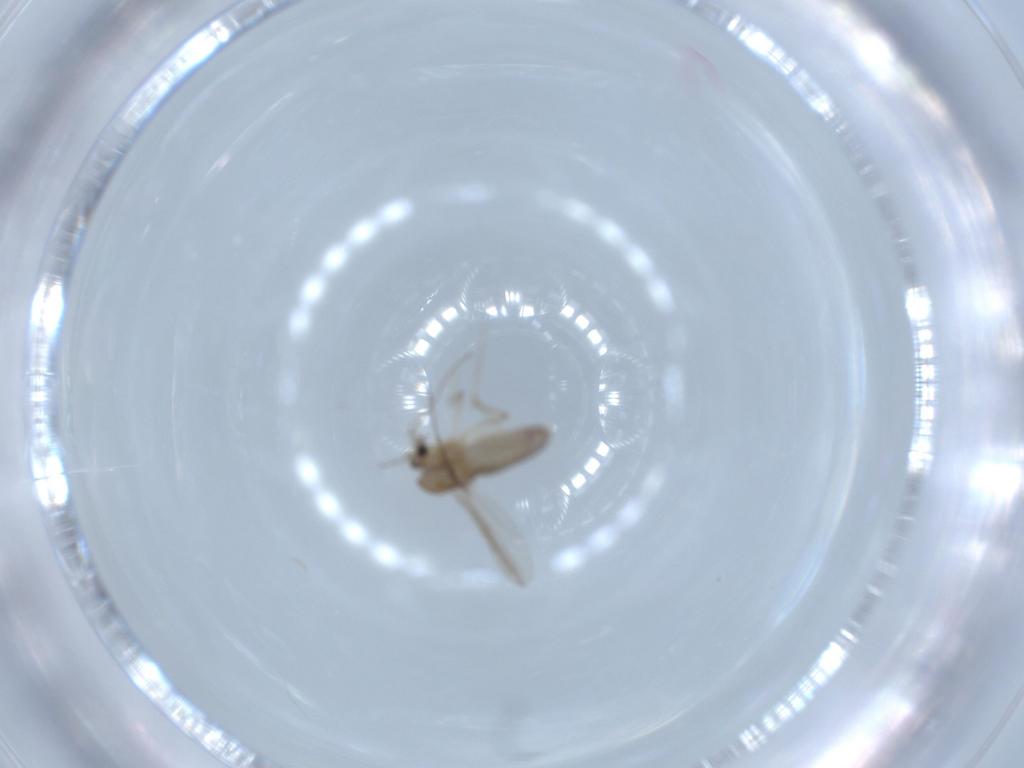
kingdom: Animalia
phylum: Arthropoda
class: Insecta
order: Diptera
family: Chironomidae
